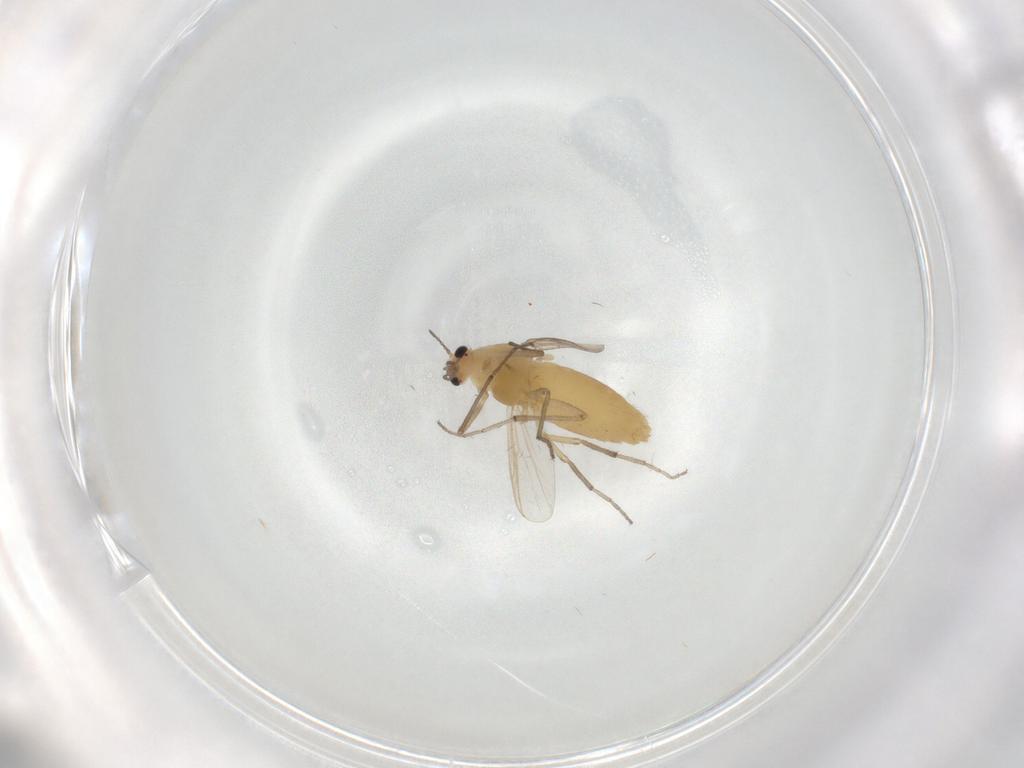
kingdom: Animalia
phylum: Arthropoda
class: Insecta
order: Diptera
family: Chironomidae
